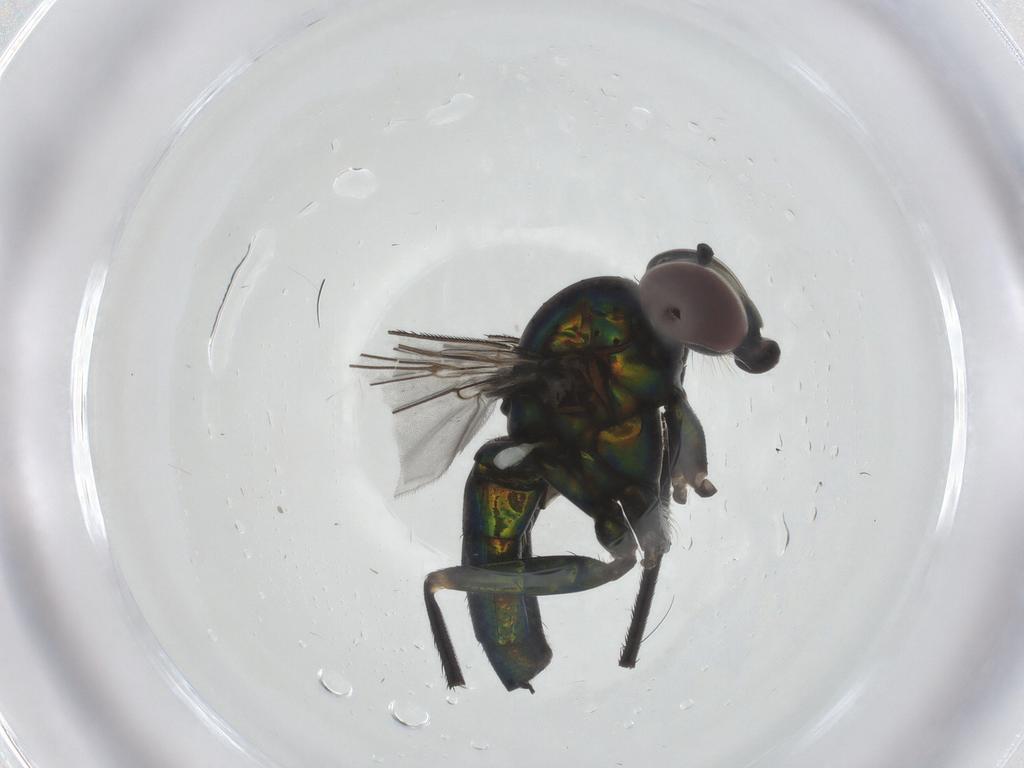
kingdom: Animalia
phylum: Arthropoda
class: Insecta
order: Diptera
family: Dolichopodidae
